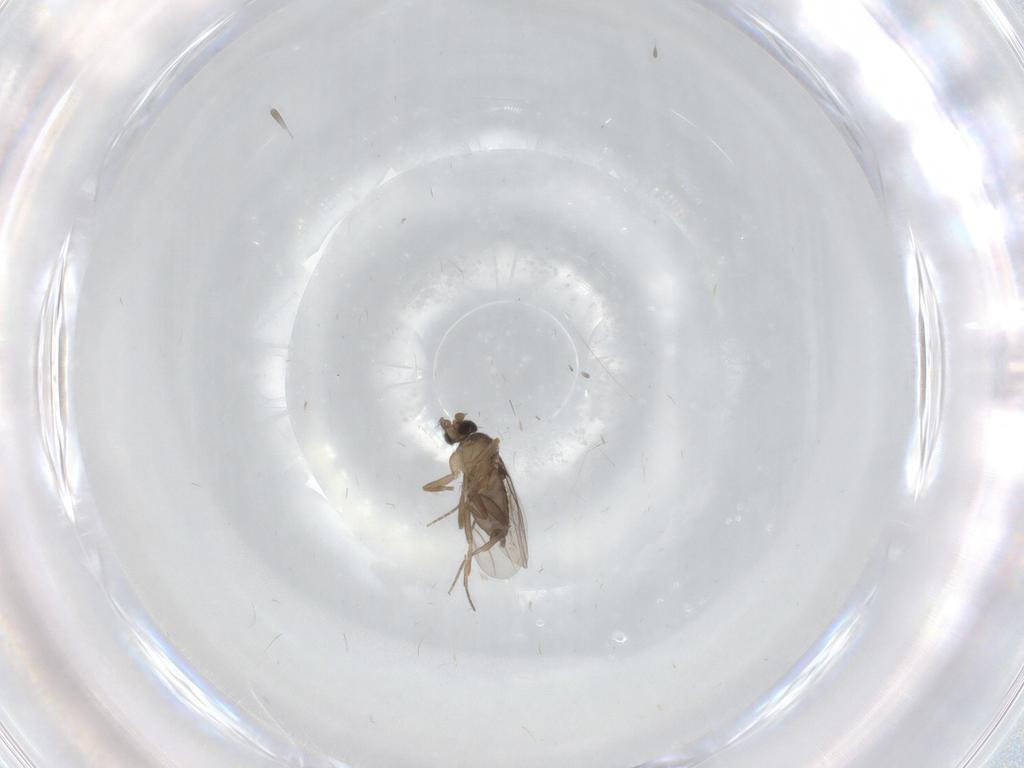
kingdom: Animalia
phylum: Arthropoda
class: Insecta
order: Diptera
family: Phoridae
